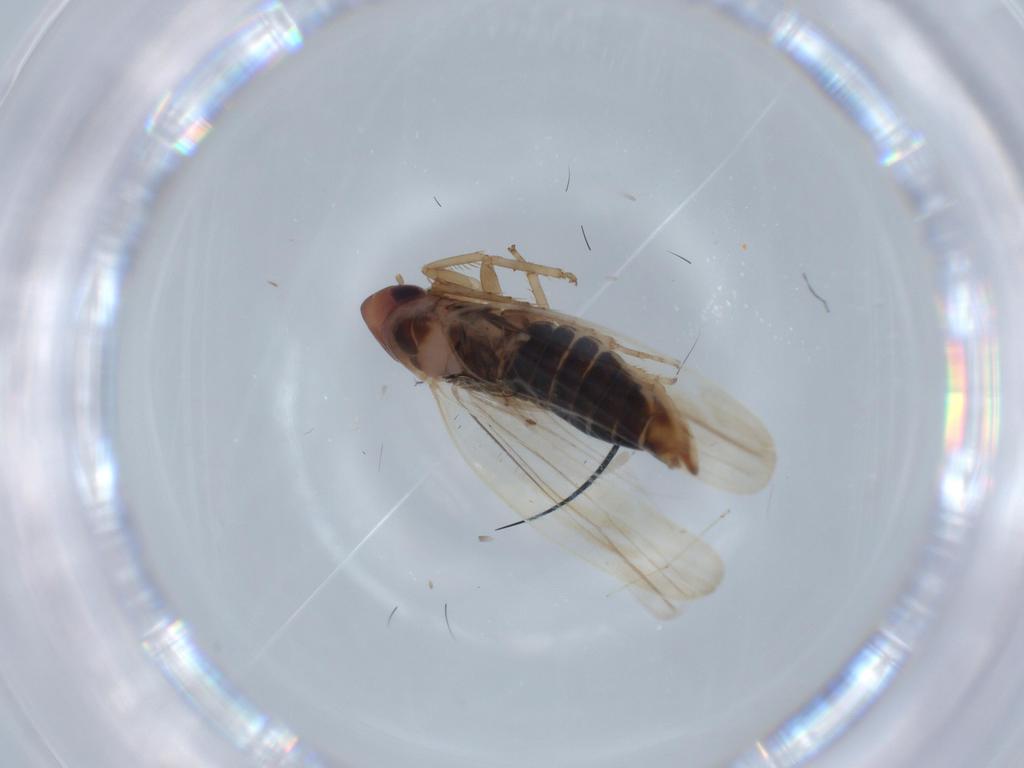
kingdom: Animalia
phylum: Arthropoda
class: Insecta
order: Hemiptera
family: Cicadellidae
